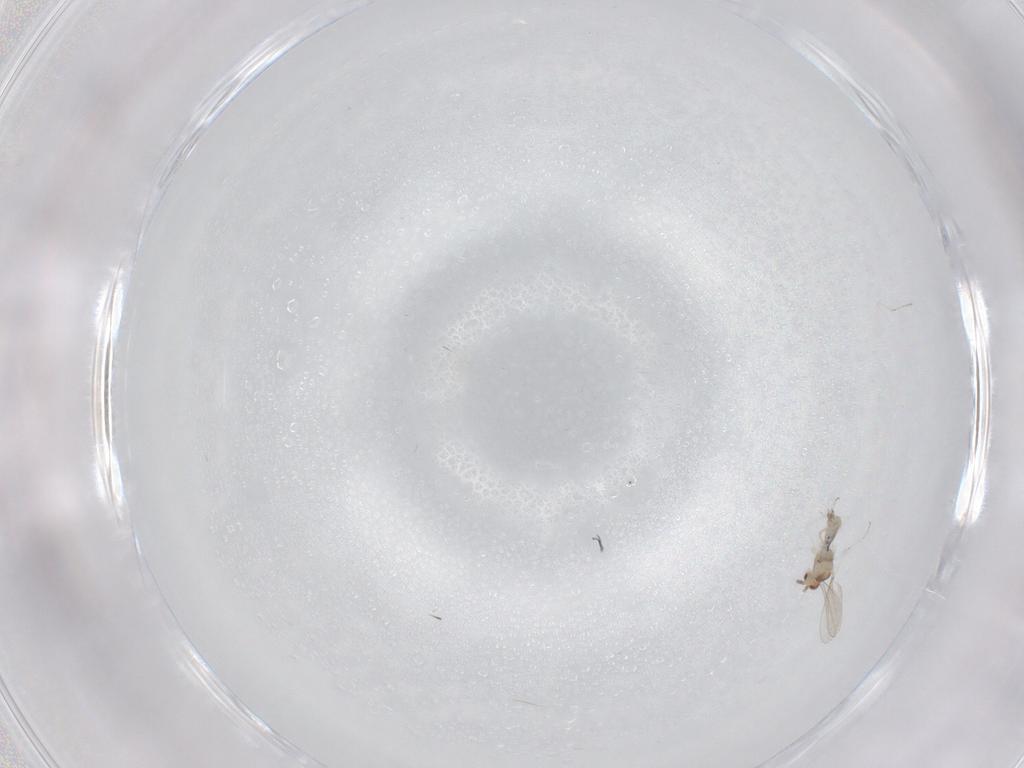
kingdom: Animalia
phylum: Arthropoda
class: Insecta
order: Diptera
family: Cecidomyiidae
